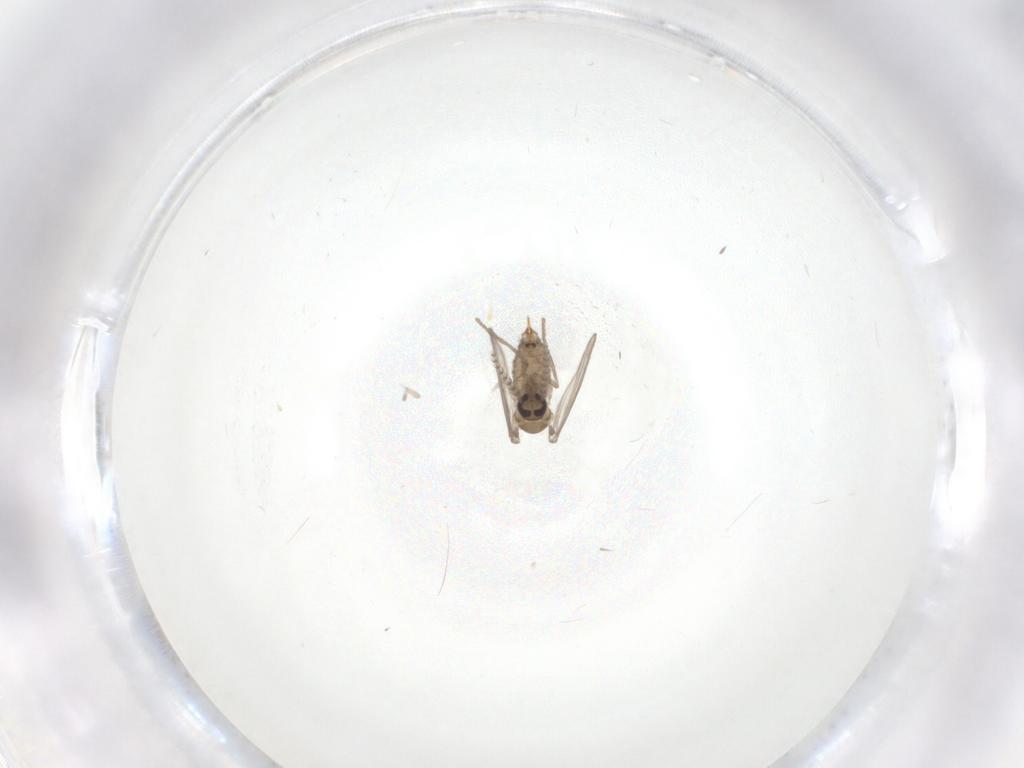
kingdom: Animalia
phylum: Arthropoda
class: Insecta
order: Diptera
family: Psychodidae
